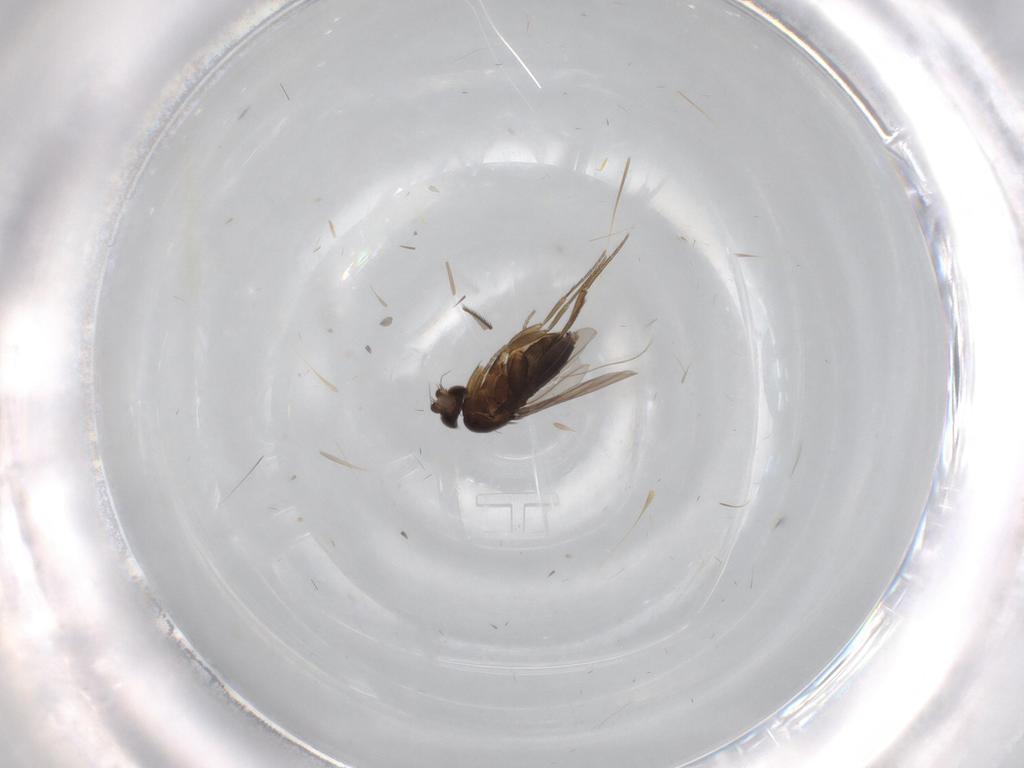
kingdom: Animalia
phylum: Arthropoda
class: Insecta
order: Diptera
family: Mycetophilidae
